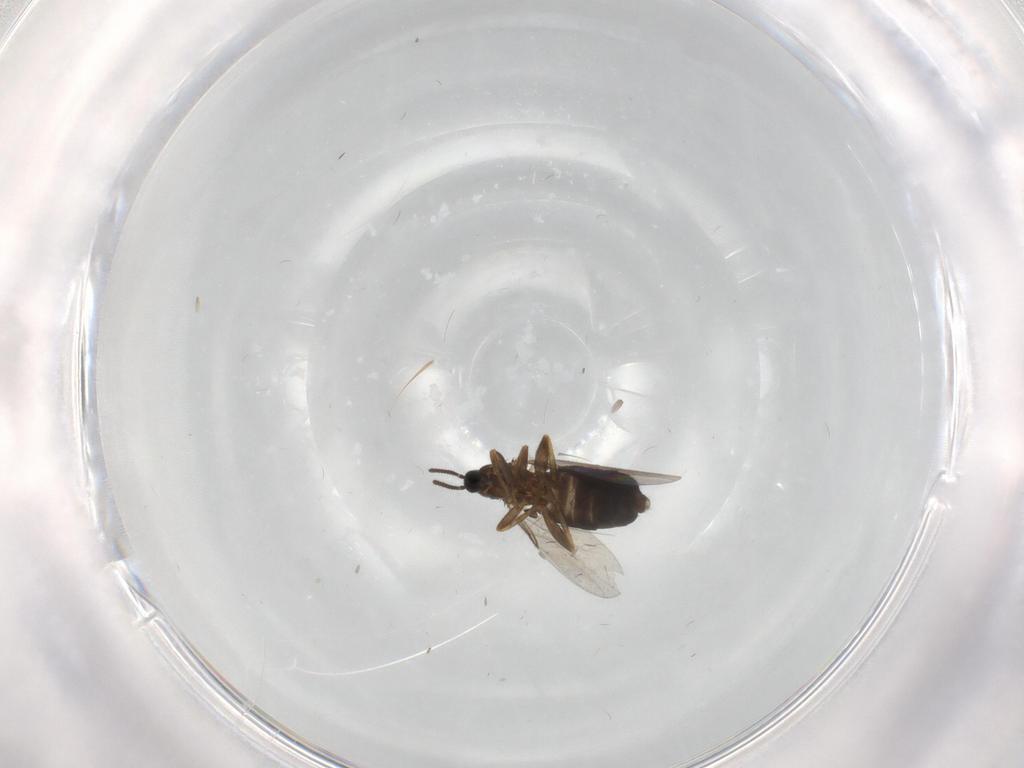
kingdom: Animalia
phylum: Arthropoda
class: Insecta
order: Diptera
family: Scatopsidae
